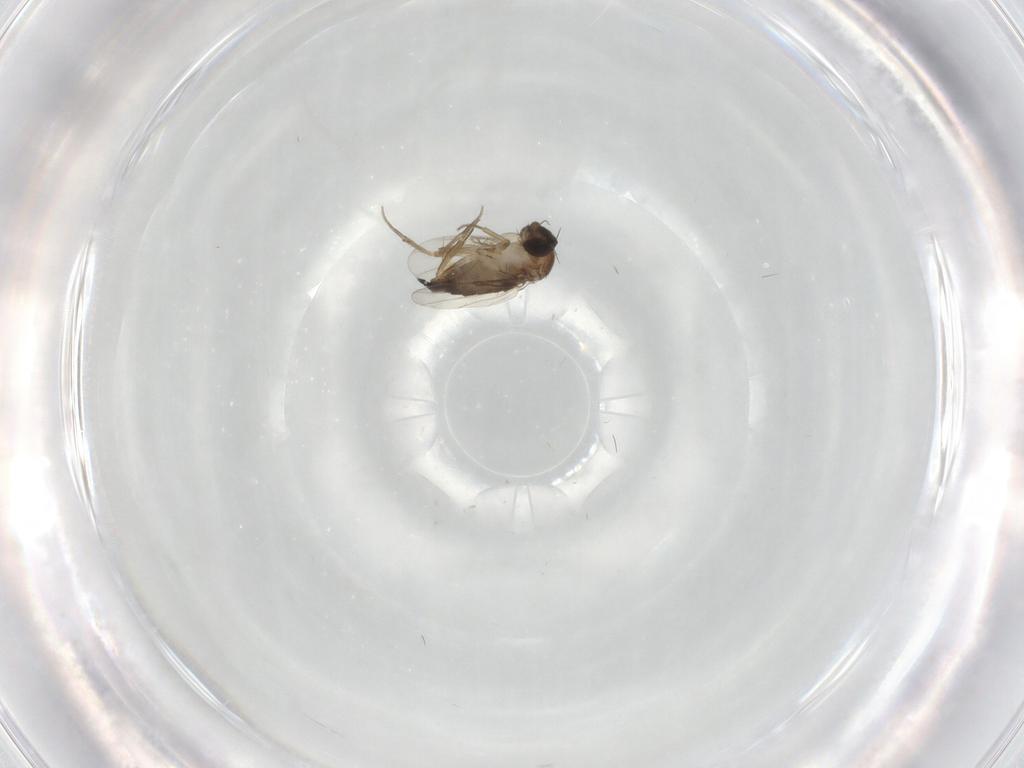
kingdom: Animalia
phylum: Arthropoda
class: Insecta
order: Diptera
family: Phoridae
